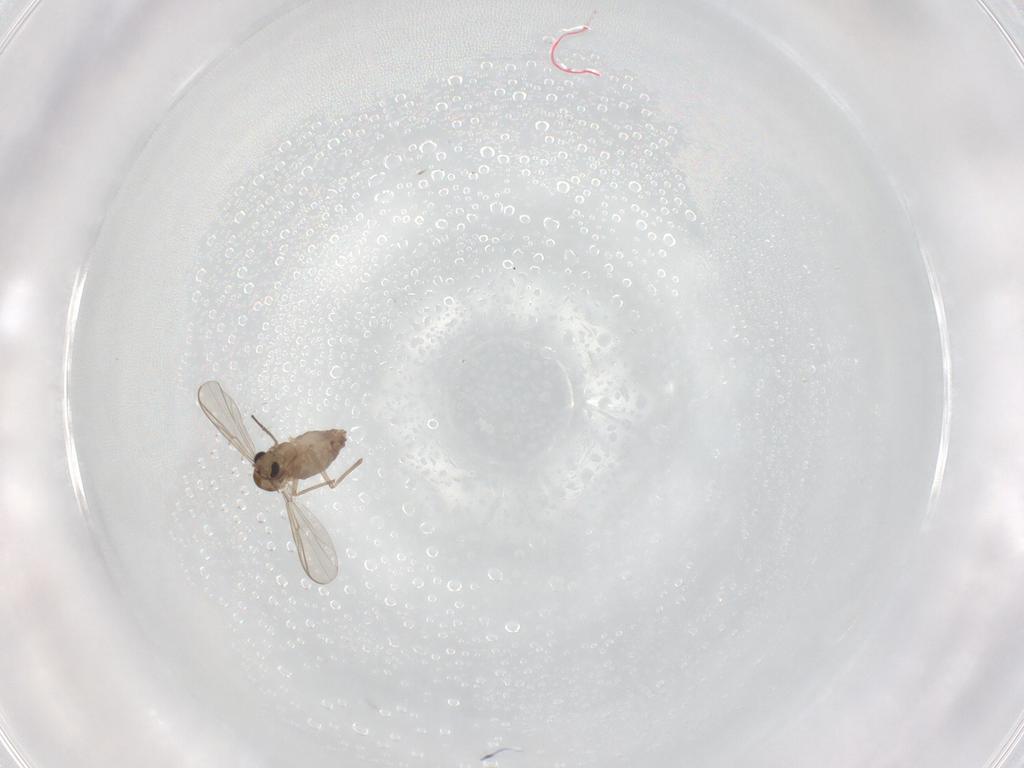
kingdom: Animalia
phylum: Arthropoda
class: Insecta
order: Diptera
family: Chironomidae
